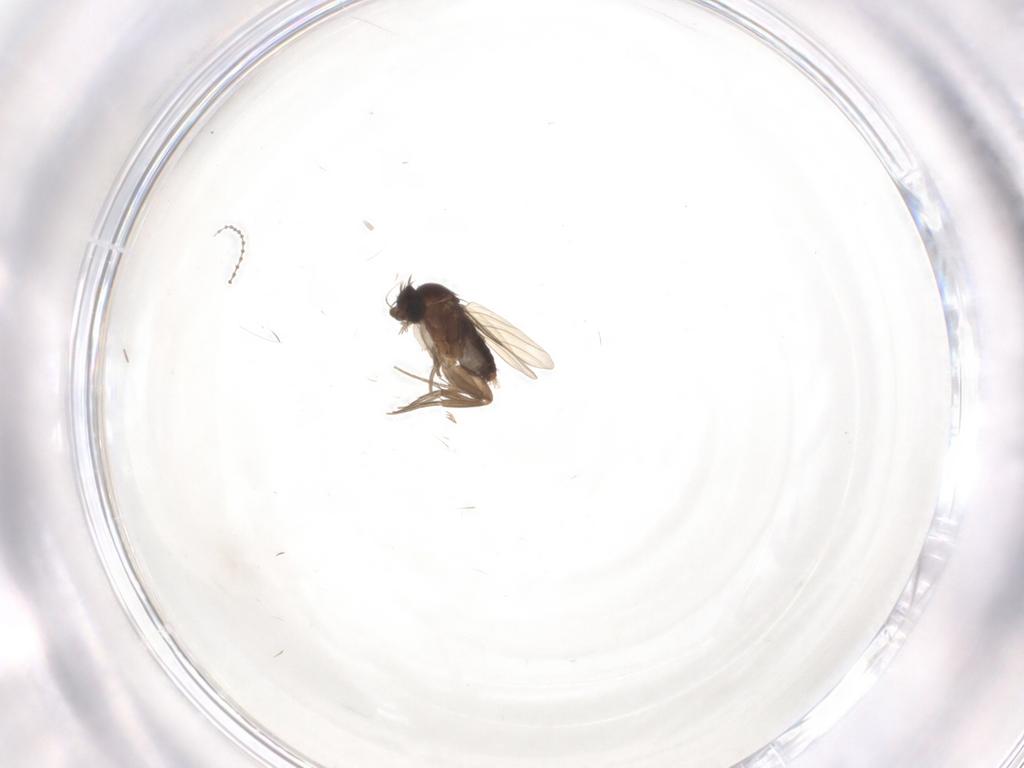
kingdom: Animalia
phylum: Arthropoda
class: Insecta
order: Diptera
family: Phoridae
